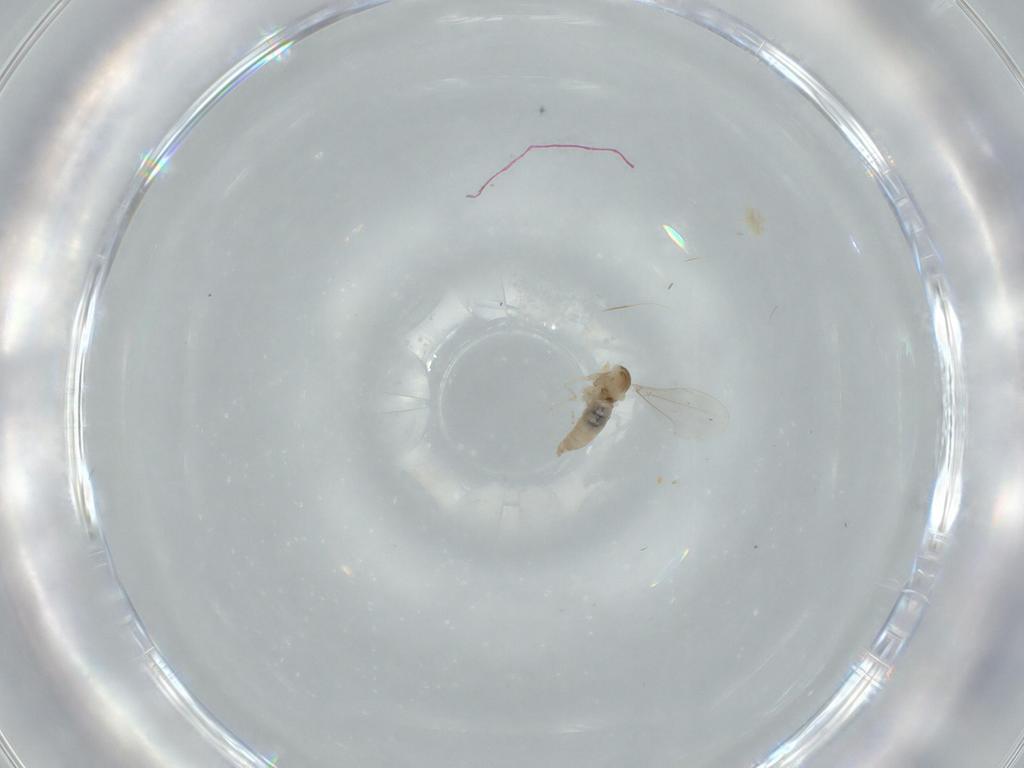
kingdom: Animalia
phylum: Arthropoda
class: Insecta
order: Diptera
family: Cecidomyiidae
